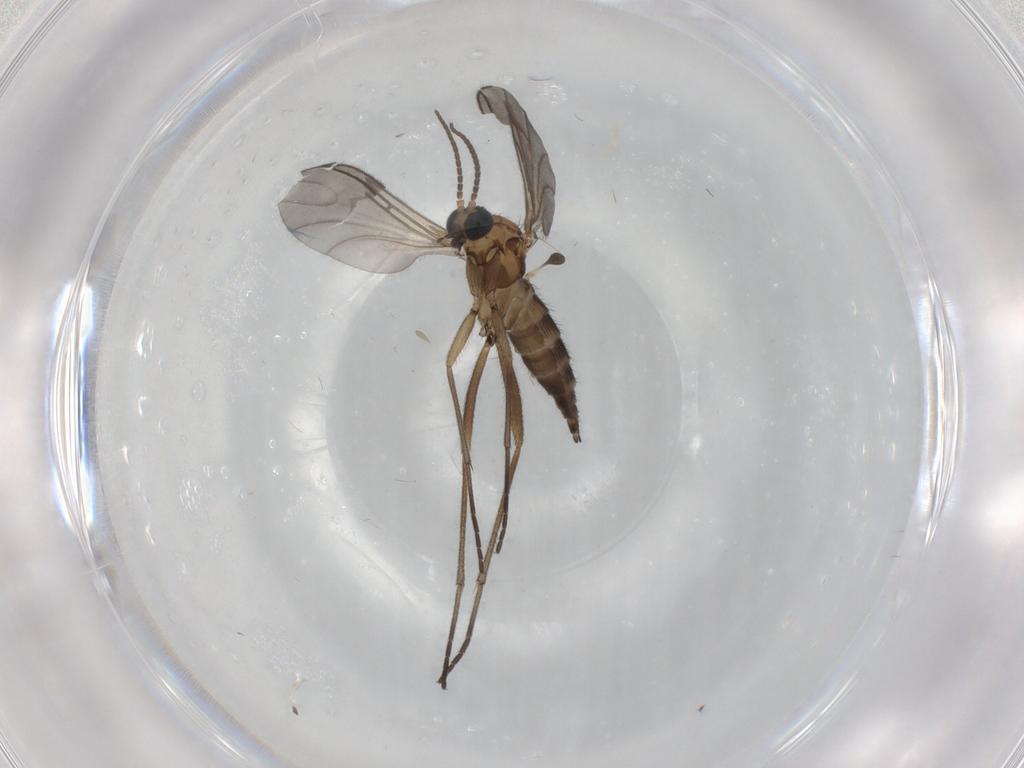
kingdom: Animalia
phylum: Arthropoda
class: Insecta
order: Diptera
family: Sciaridae
